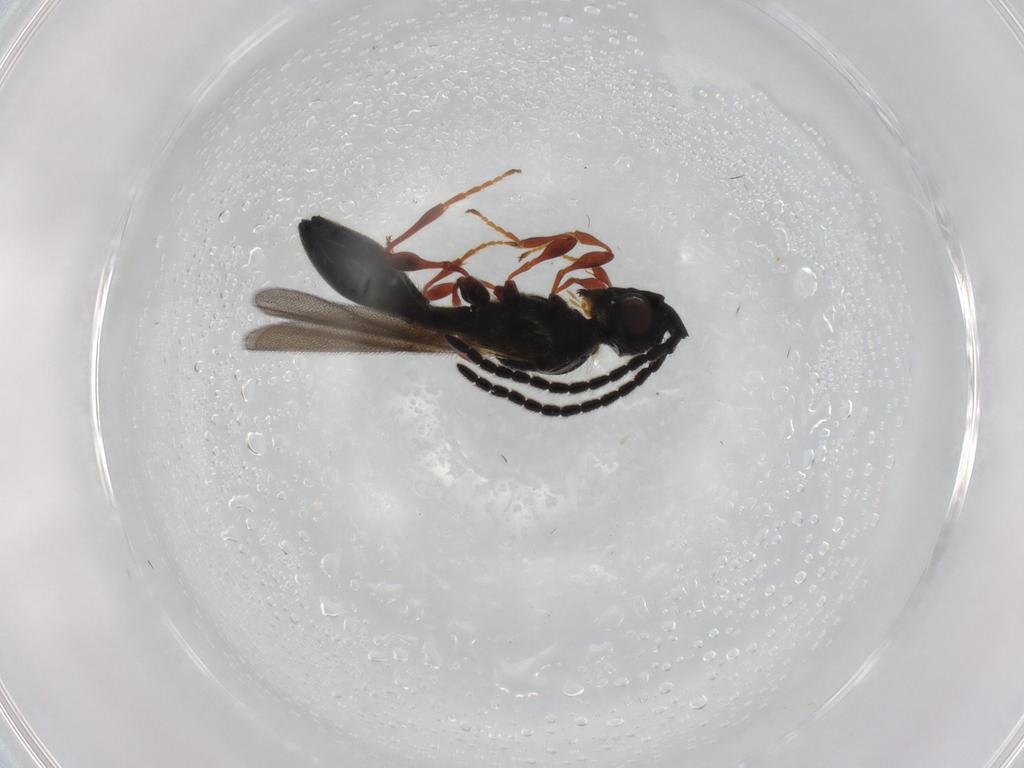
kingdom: Animalia
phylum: Arthropoda
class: Insecta
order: Hymenoptera
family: Diapriidae
